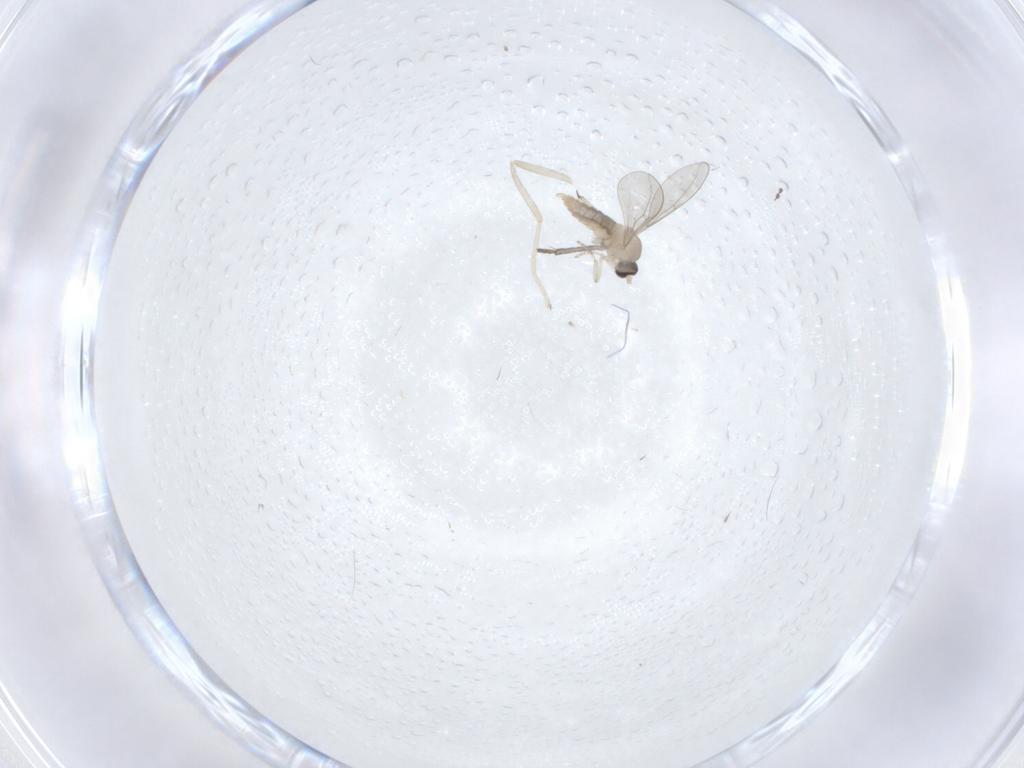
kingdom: Animalia
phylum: Arthropoda
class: Insecta
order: Diptera
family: Cecidomyiidae
